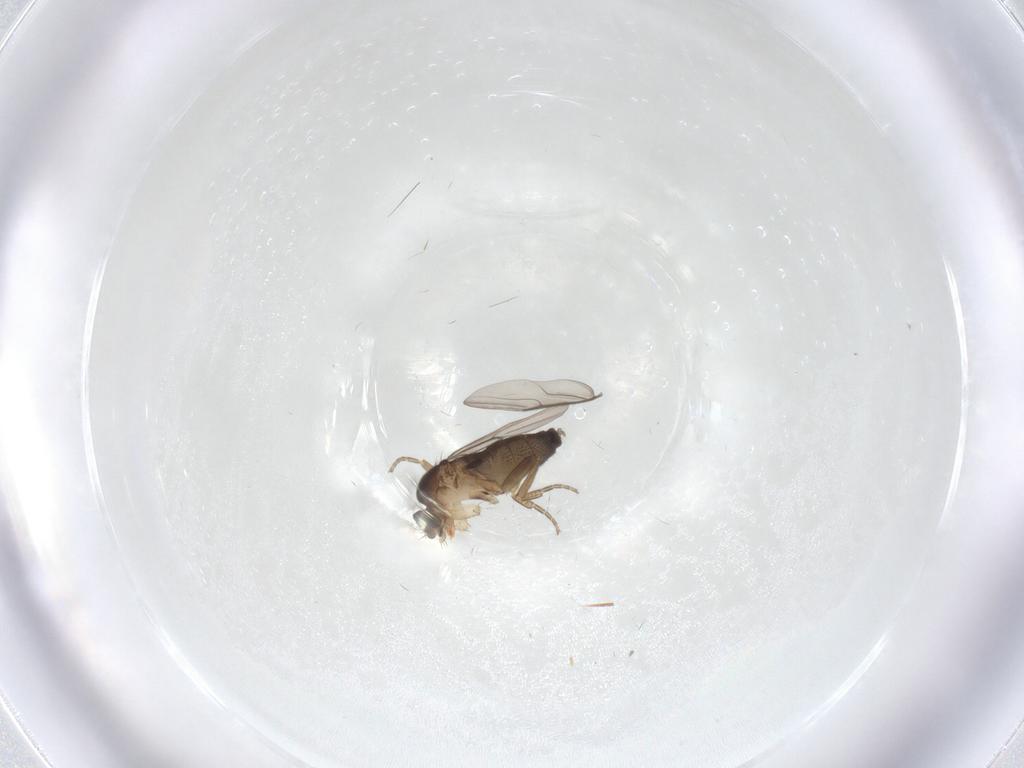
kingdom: Animalia
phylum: Arthropoda
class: Insecta
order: Diptera
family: Phoridae
